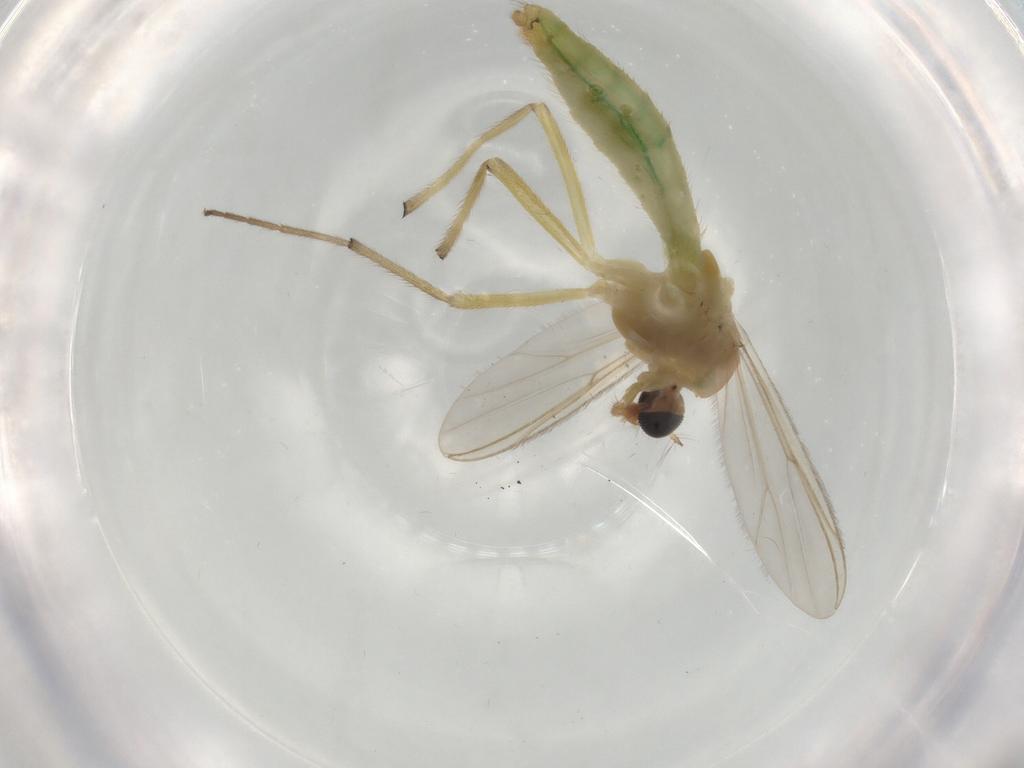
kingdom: Animalia
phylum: Arthropoda
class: Insecta
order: Diptera
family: Chironomidae
